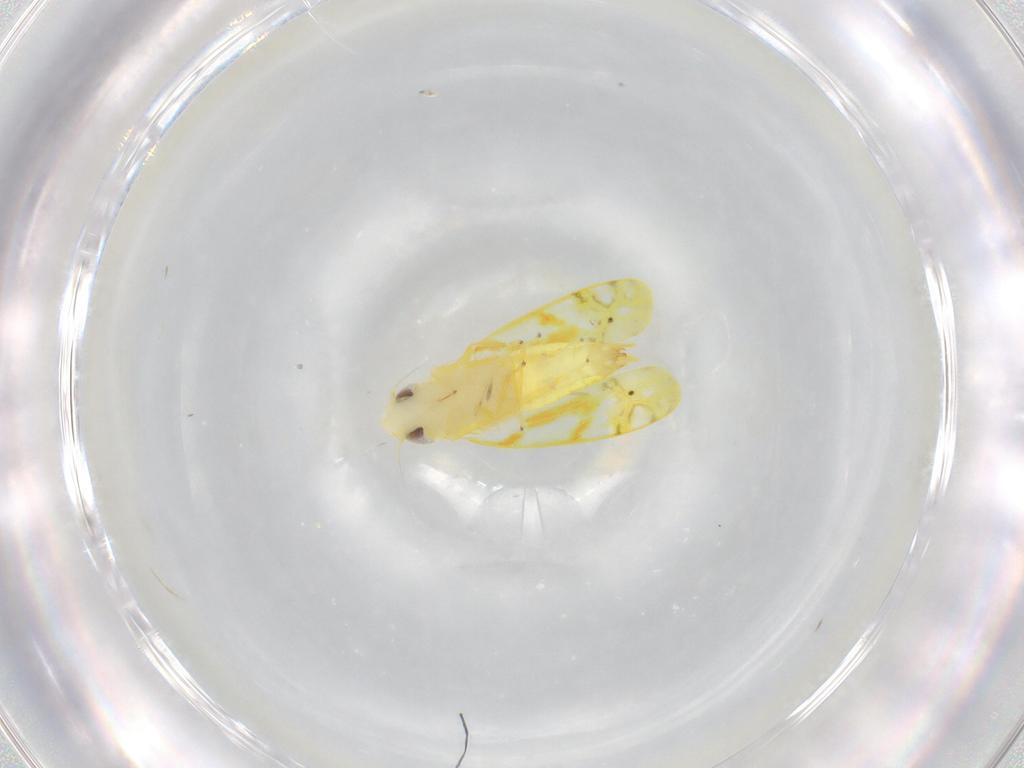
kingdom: Animalia
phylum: Arthropoda
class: Insecta
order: Hemiptera
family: Cicadellidae
